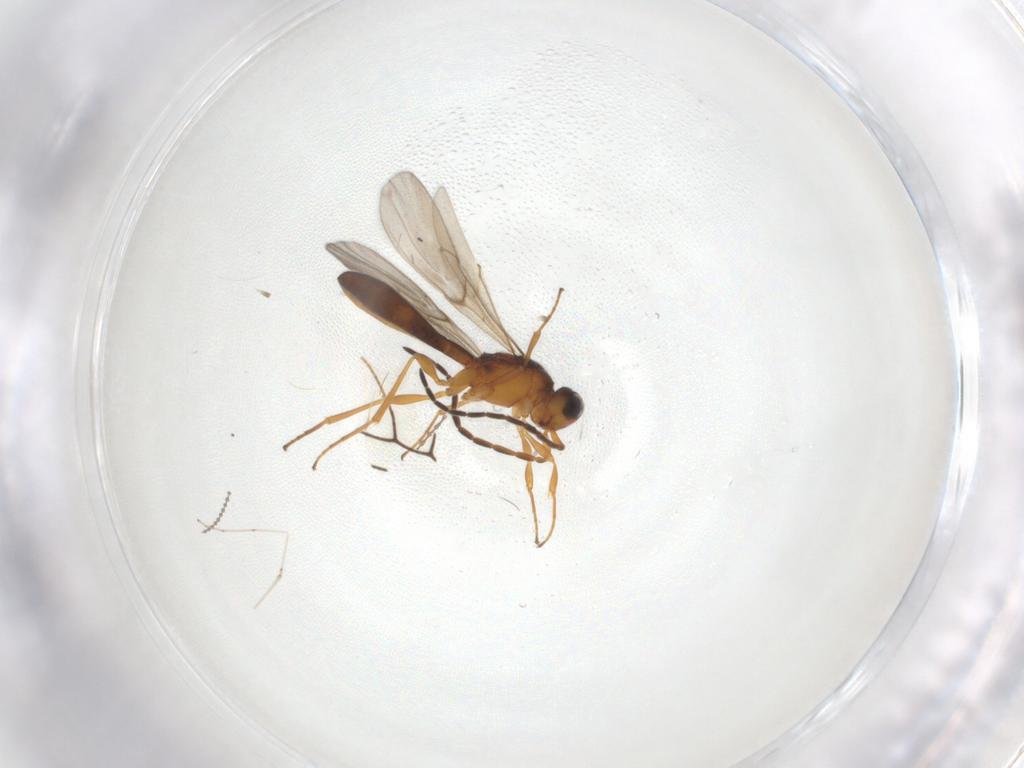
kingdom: Animalia
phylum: Arthropoda
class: Insecta
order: Hymenoptera
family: Scelionidae
